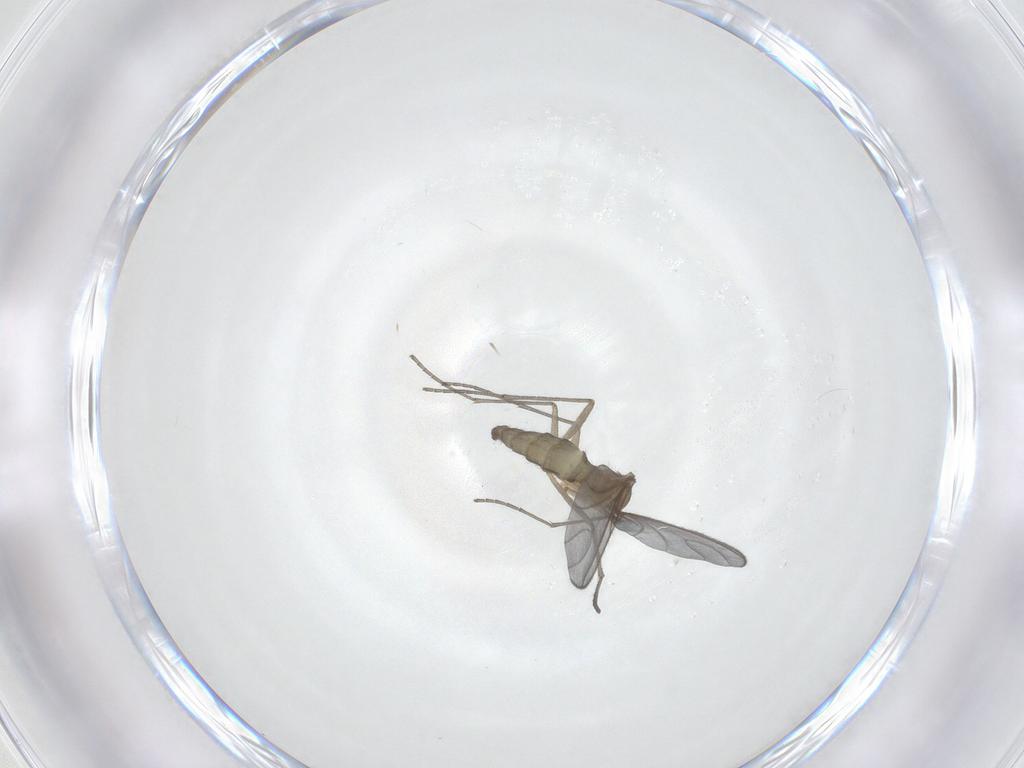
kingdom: Animalia
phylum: Arthropoda
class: Insecta
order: Diptera
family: Sciaridae
